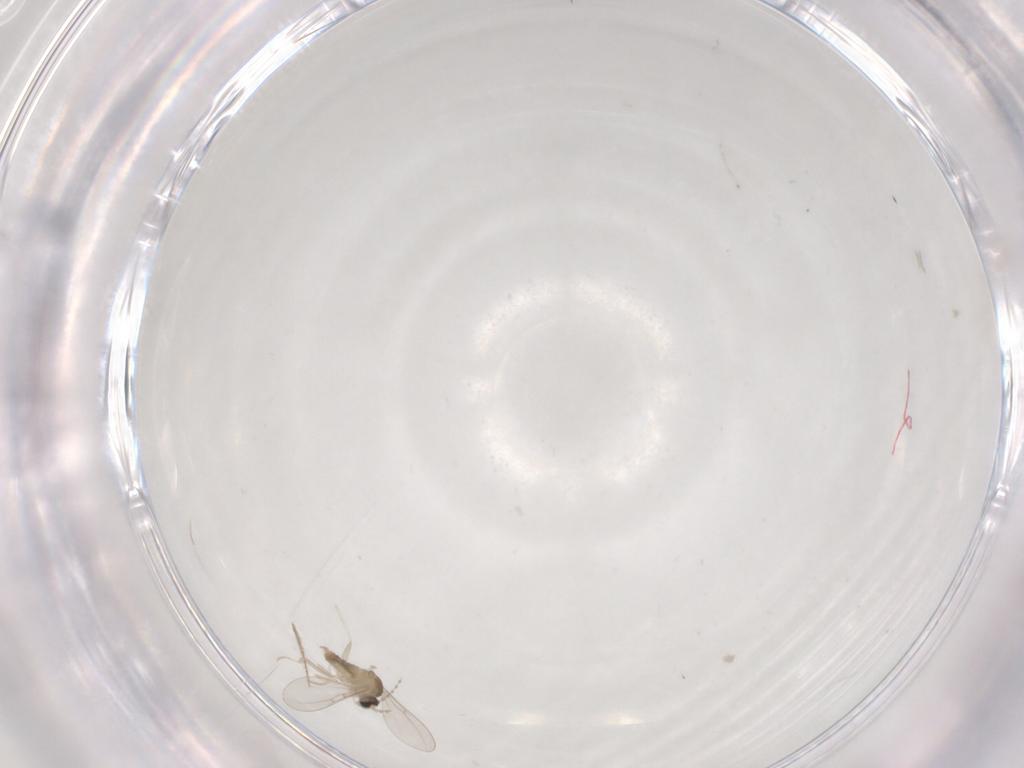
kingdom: Animalia
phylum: Arthropoda
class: Insecta
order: Diptera
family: Cecidomyiidae
